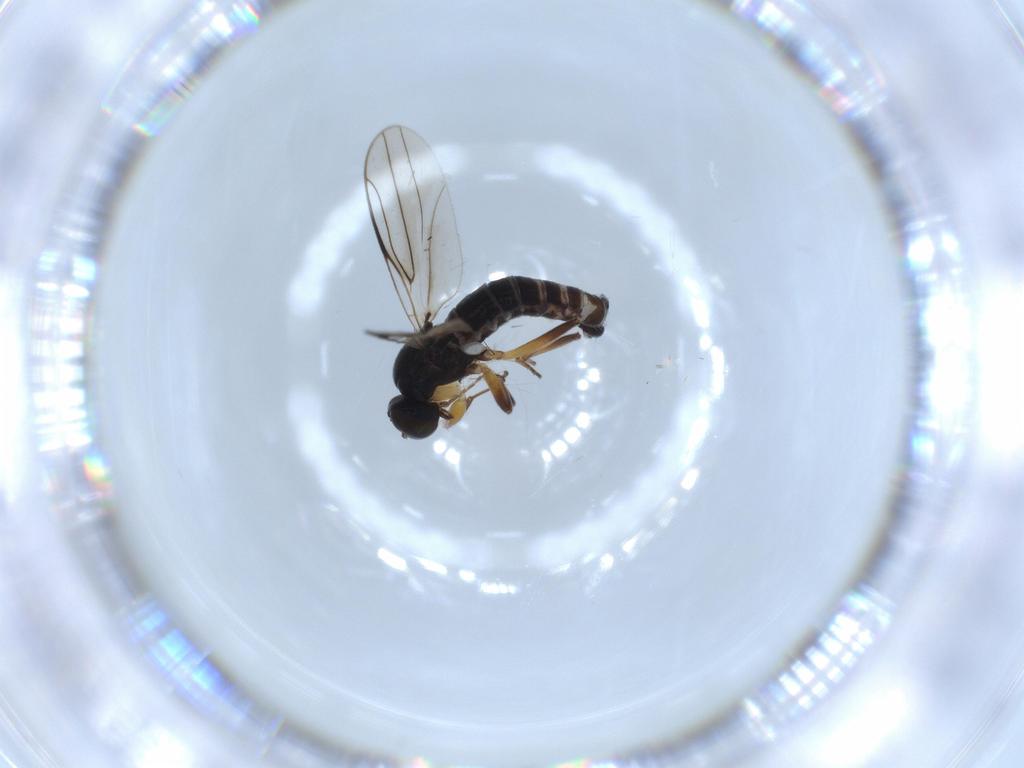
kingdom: Animalia
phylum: Arthropoda
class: Insecta
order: Diptera
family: Hybotidae
